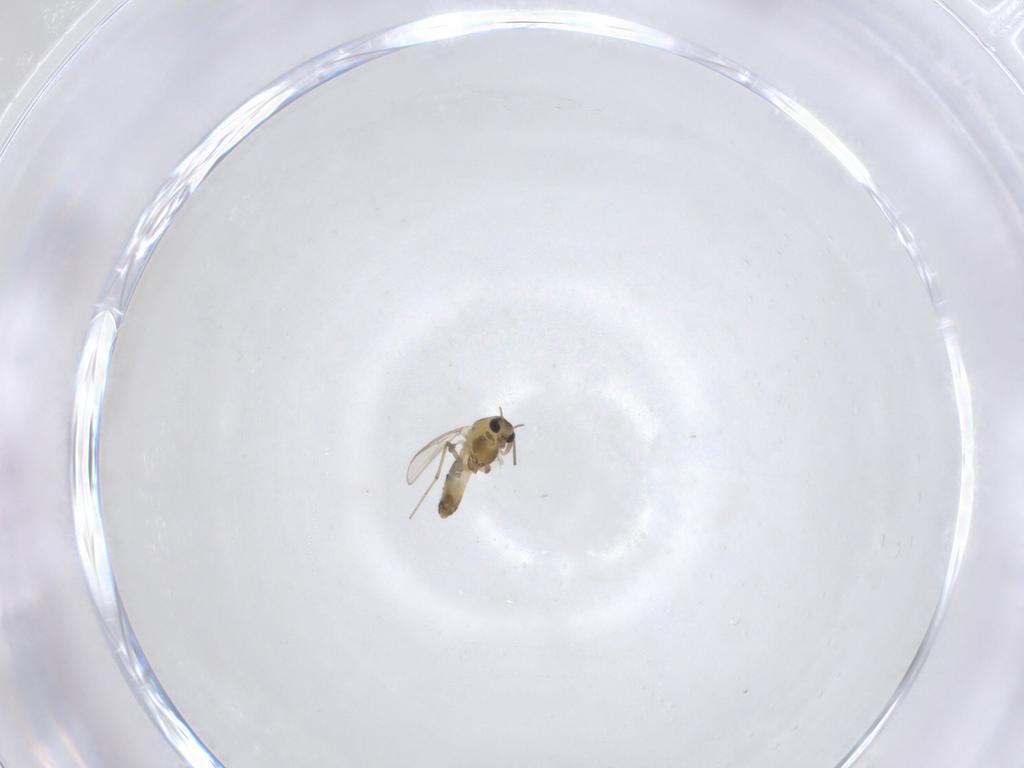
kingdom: Animalia
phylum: Arthropoda
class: Insecta
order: Diptera
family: Chironomidae
